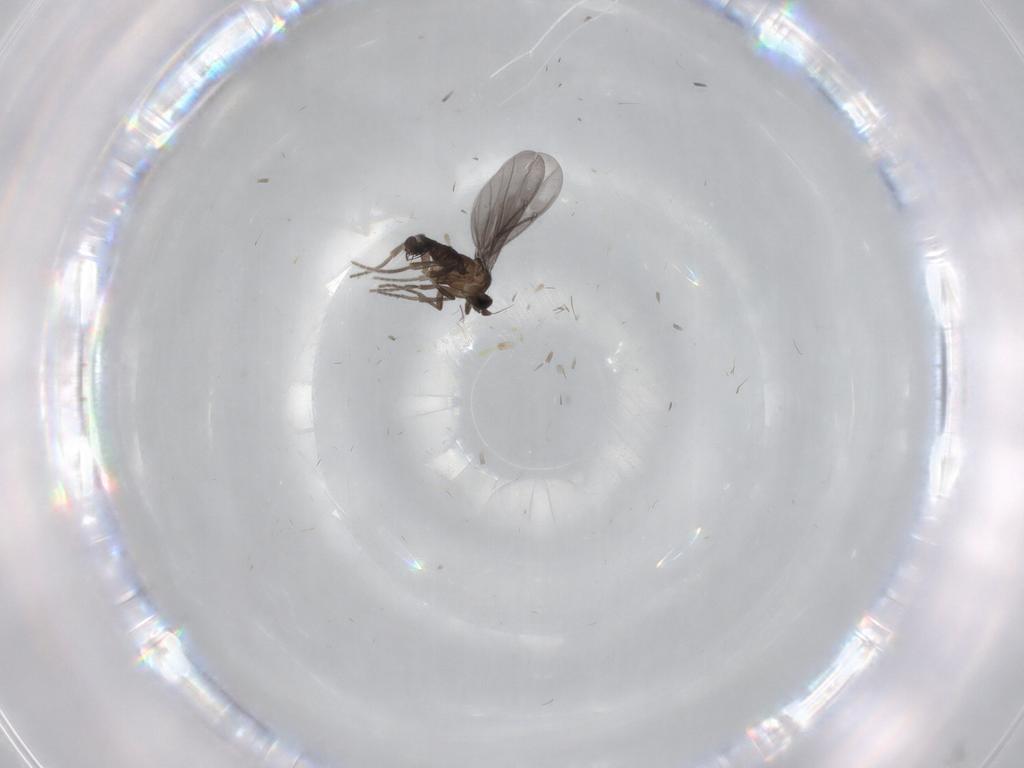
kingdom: Animalia
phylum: Arthropoda
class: Insecta
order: Diptera
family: Phoridae
